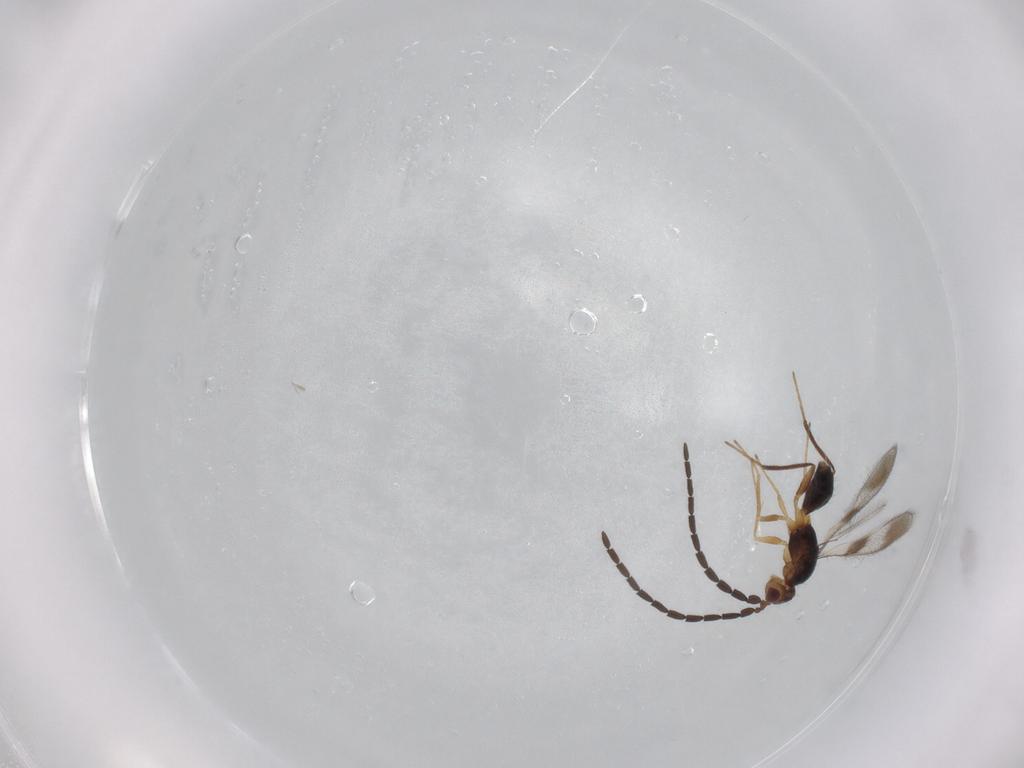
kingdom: Animalia
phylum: Arthropoda
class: Insecta
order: Hymenoptera
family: Mymaridae
